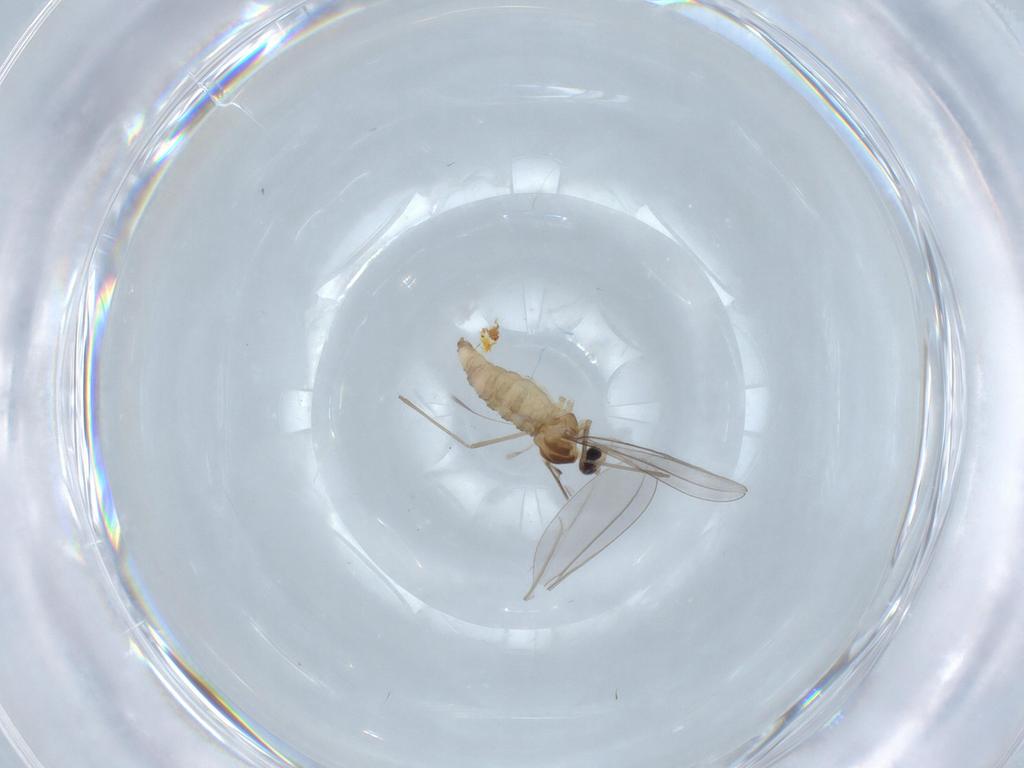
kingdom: Animalia
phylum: Arthropoda
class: Insecta
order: Diptera
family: Cecidomyiidae
